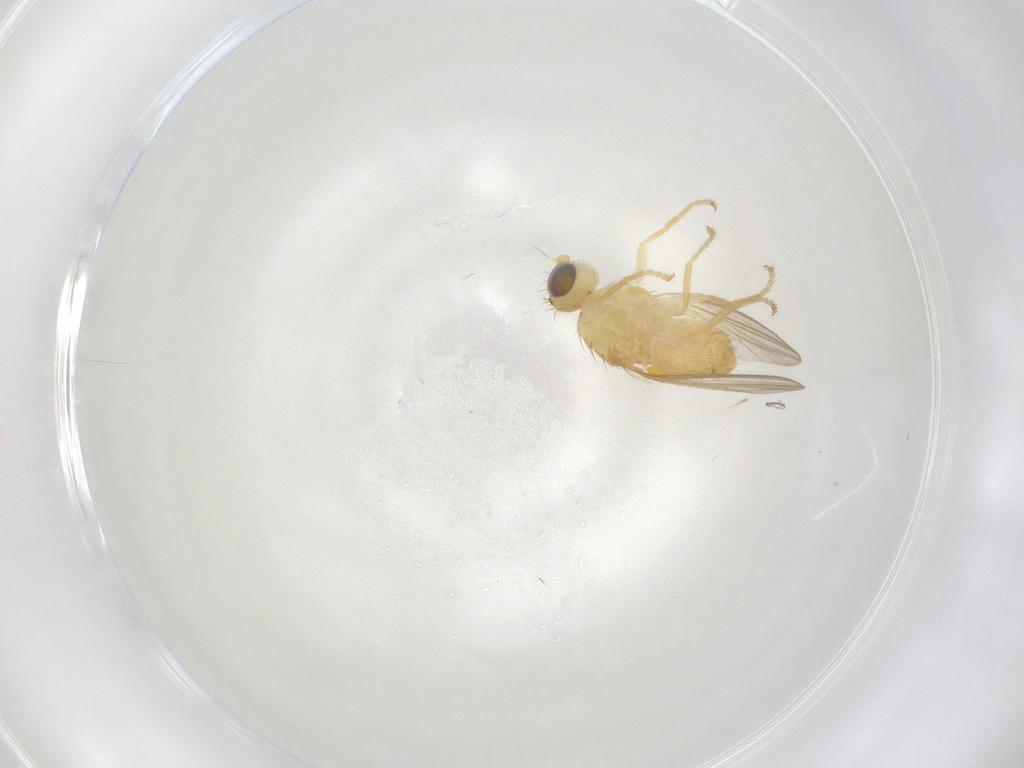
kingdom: Animalia
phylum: Arthropoda
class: Insecta
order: Diptera
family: Chyromyidae
